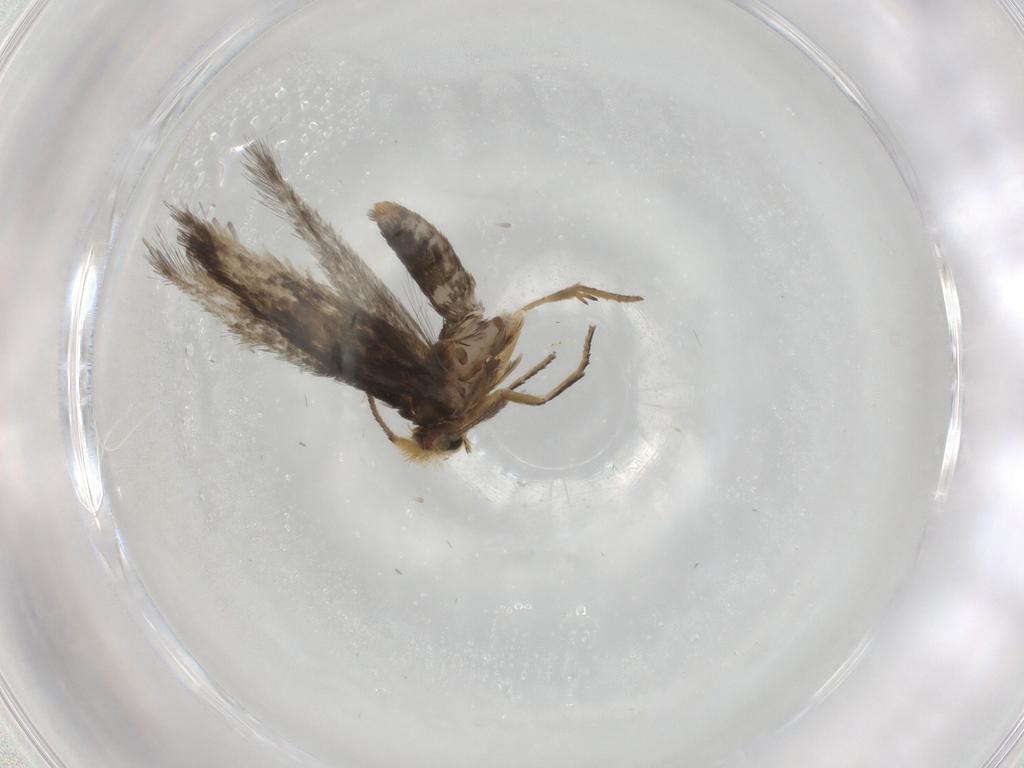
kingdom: Animalia
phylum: Arthropoda
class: Insecta
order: Lepidoptera
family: Nepticulidae
